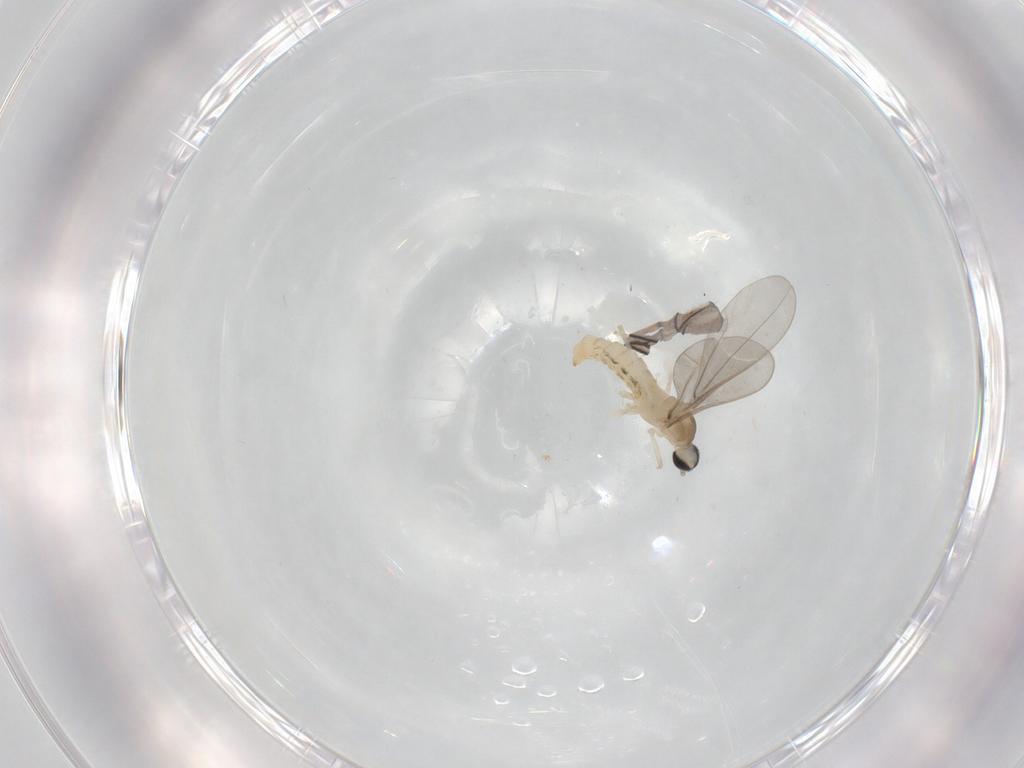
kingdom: Animalia
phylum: Arthropoda
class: Insecta
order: Diptera
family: Cecidomyiidae
